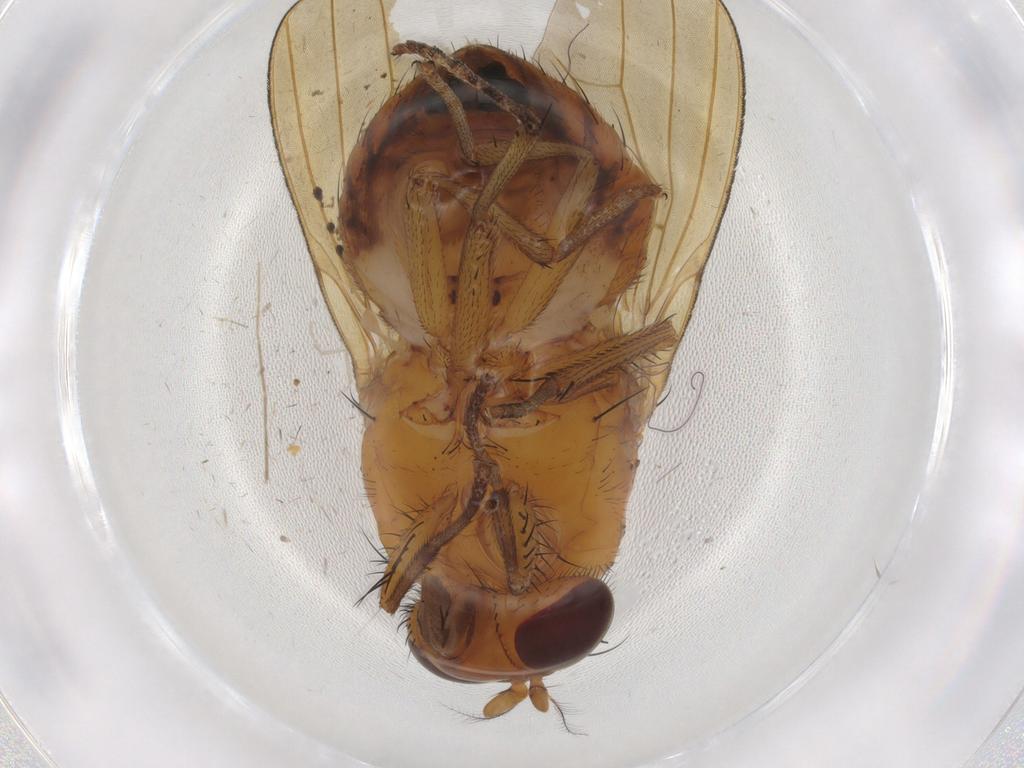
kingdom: Animalia
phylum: Arthropoda
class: Insecta
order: Diptera
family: Mycetophilidae
